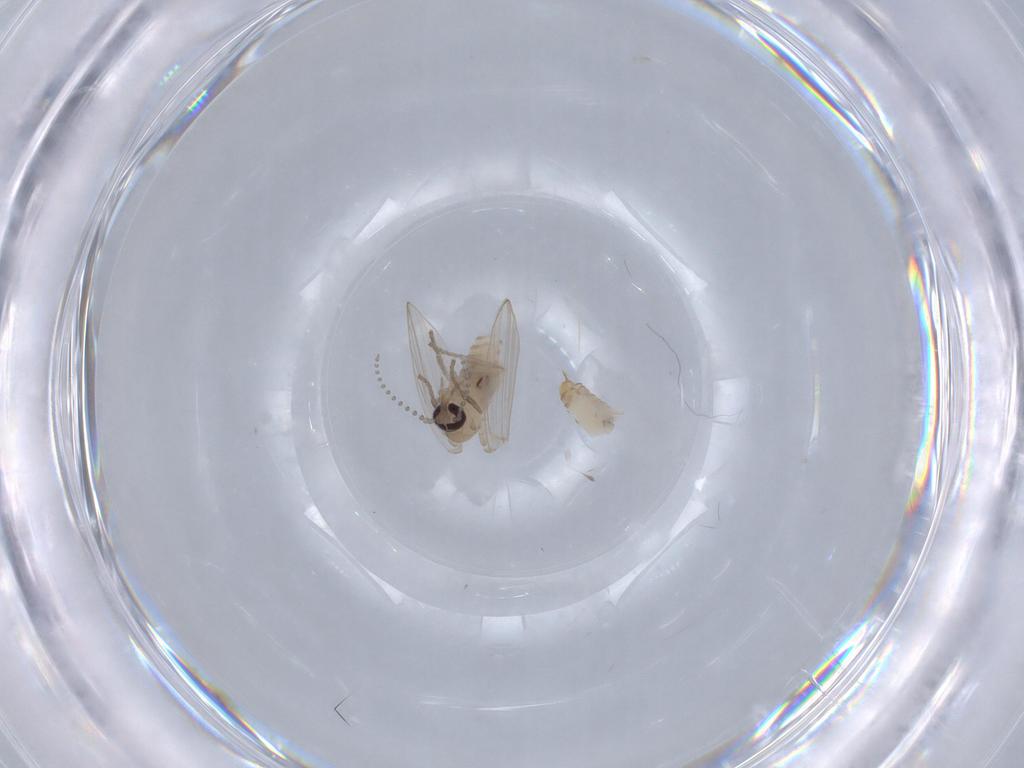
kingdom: Animalia
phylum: Arthropoda
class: Insecta
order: Diptera
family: Psychodidae
